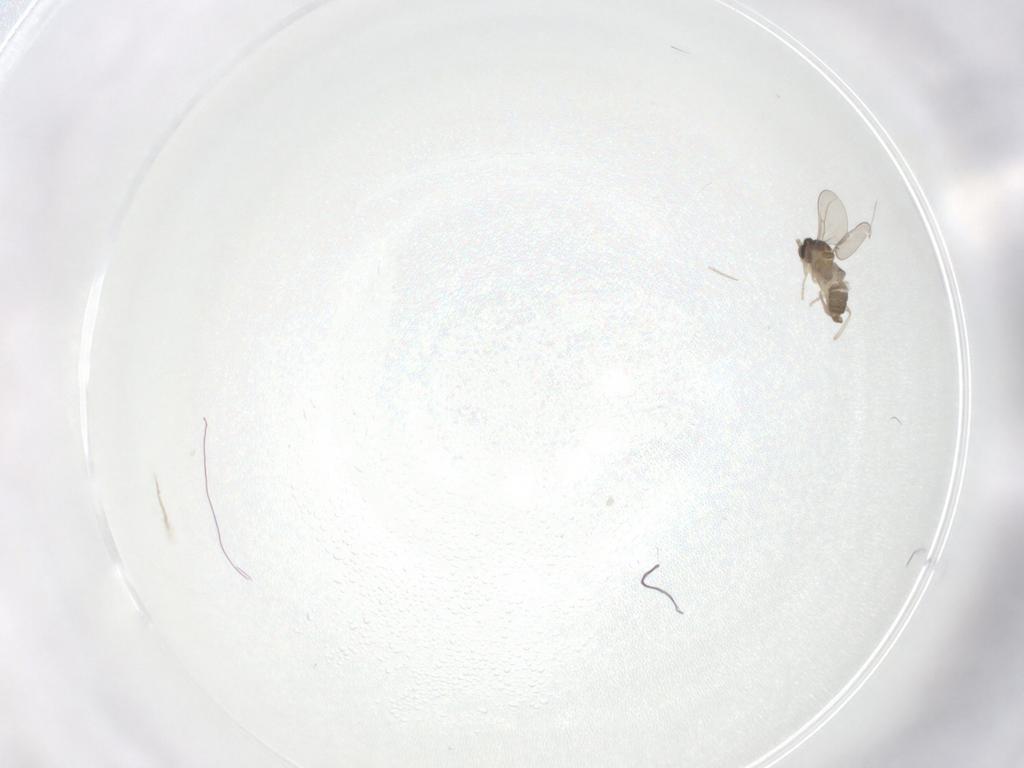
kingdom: Animalia
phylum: Arthropoda
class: Insecta
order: Diptera
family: Cecidomyiidae
